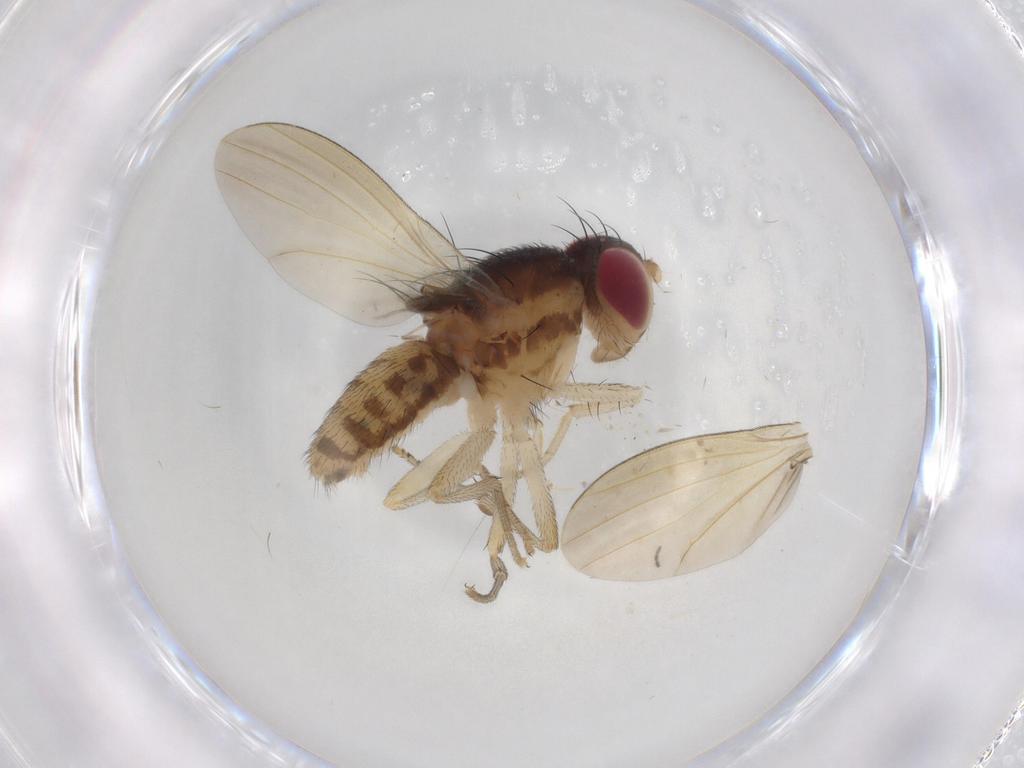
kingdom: Animalia
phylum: Arthropoda
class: Insecta
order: Diptera
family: Sciaridae
